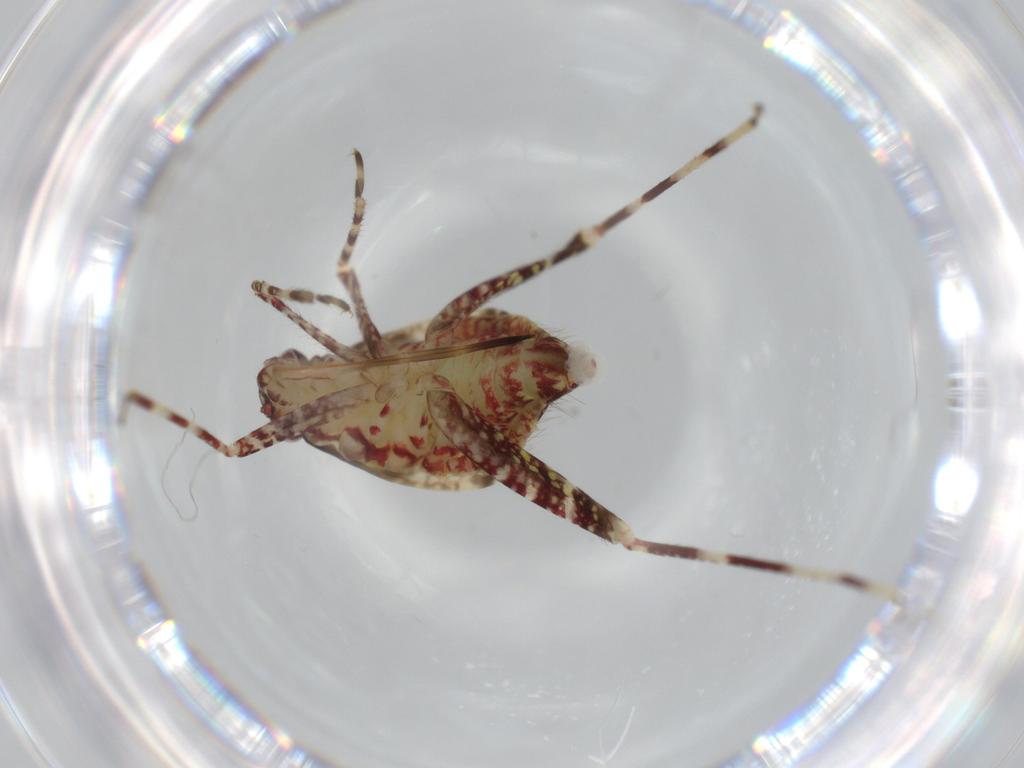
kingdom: Animalia
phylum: Arthropoda
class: Insecta
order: Hemiptera
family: Miridae
